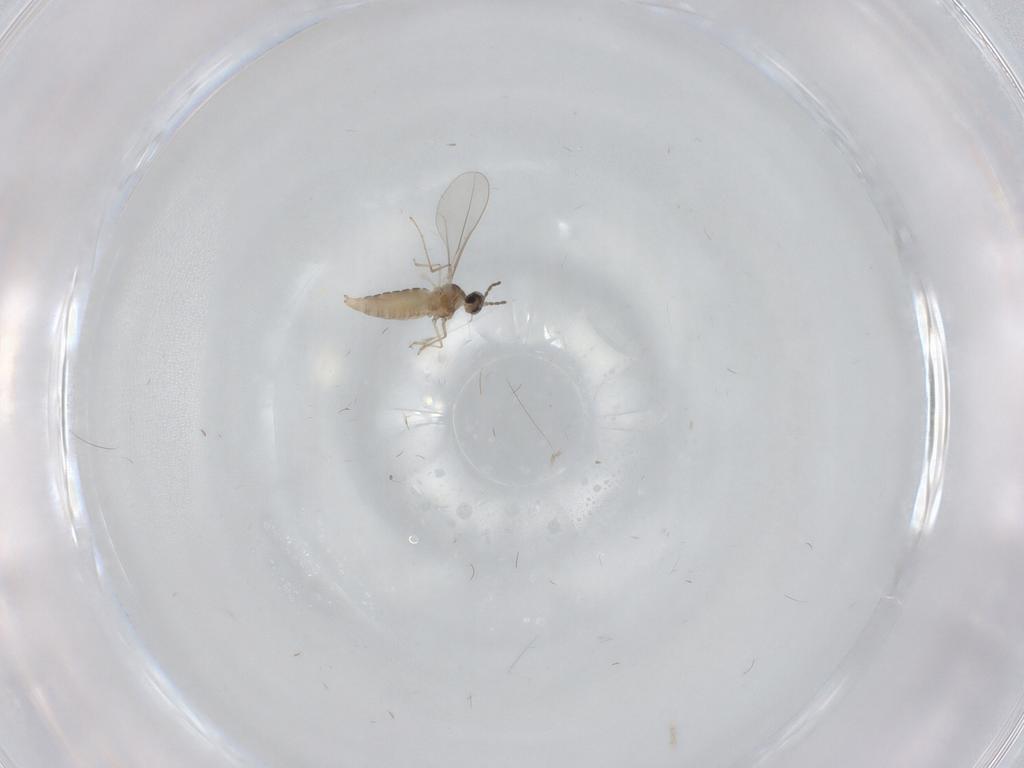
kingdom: Animalia
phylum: Arthropoda
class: Insecta
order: Diptera
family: Cecidomyiidae
